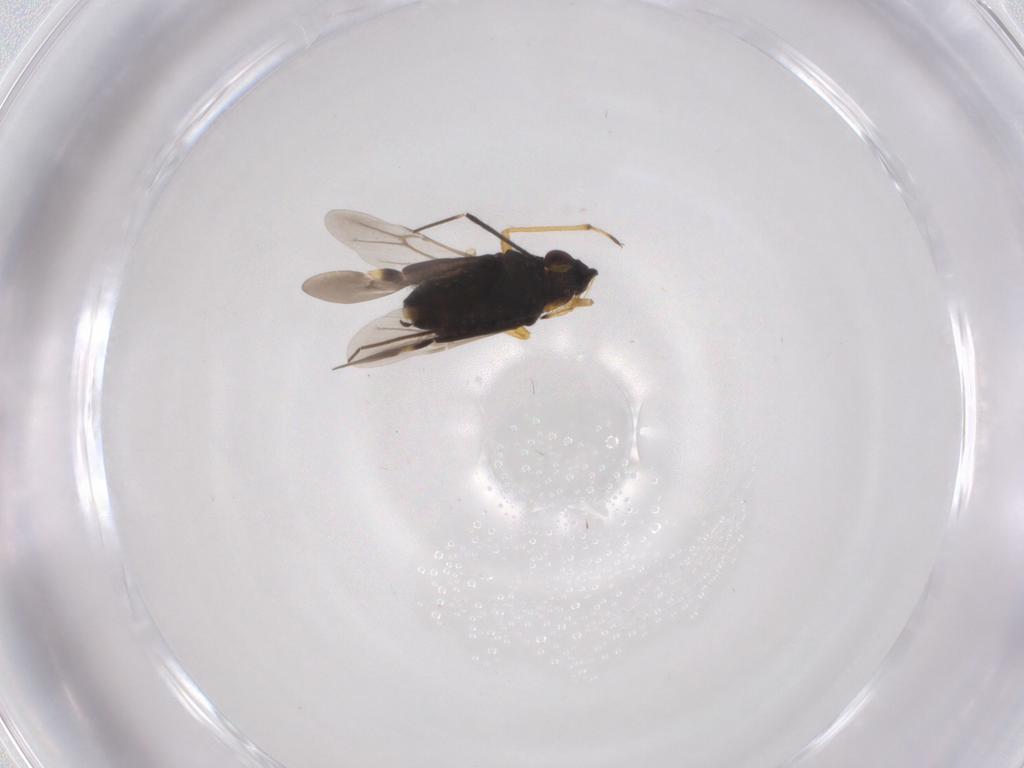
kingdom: Animalia
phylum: Arthropoda
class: Insecta
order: Hemiptera
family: Miridae
